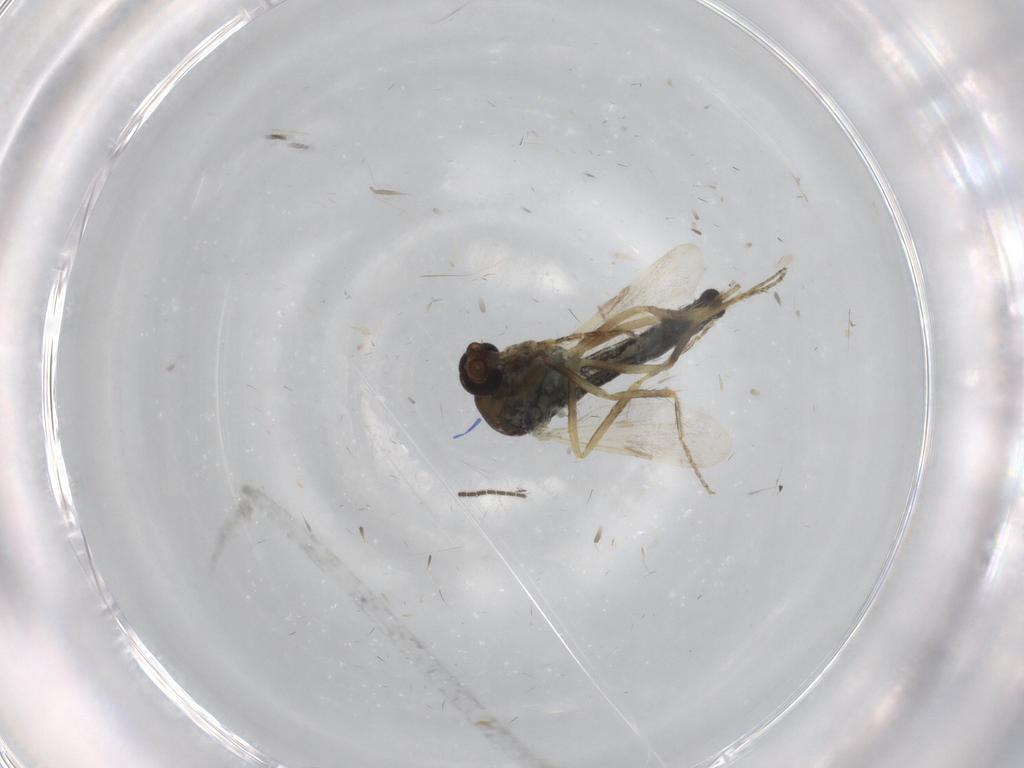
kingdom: Animalia
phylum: Arthropoda
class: Insecta
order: Diptera
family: Ceratopogonidae
